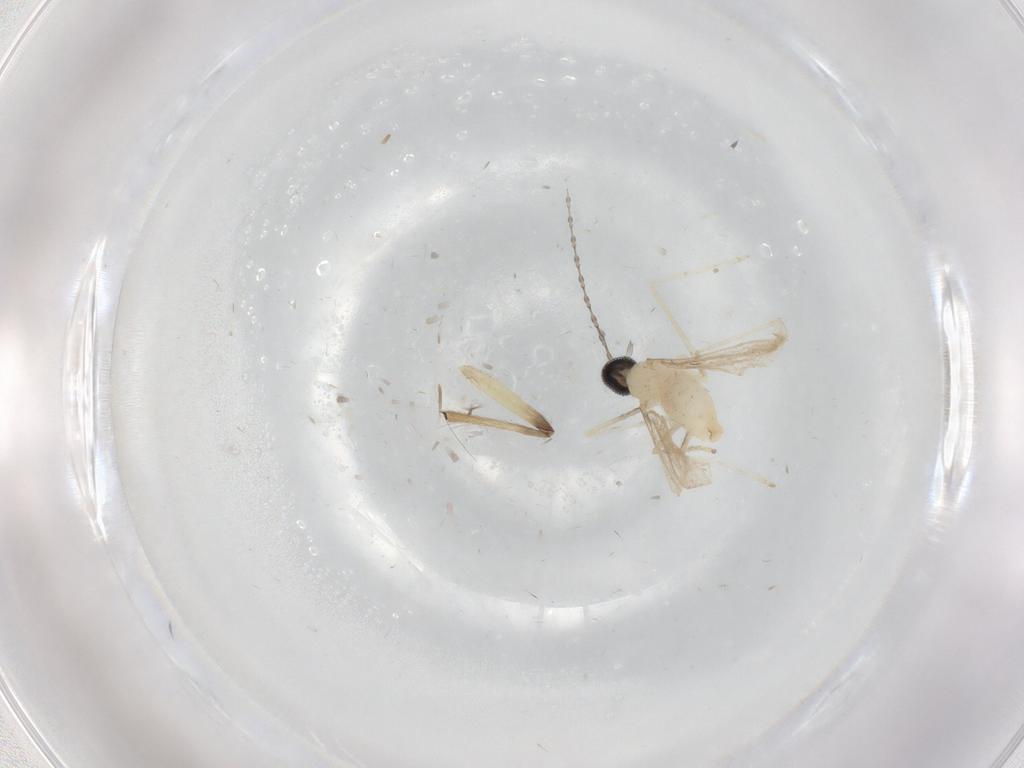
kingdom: Animalia
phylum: Arthropoda
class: Insecta
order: Diptera
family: Cecidomyiidae
